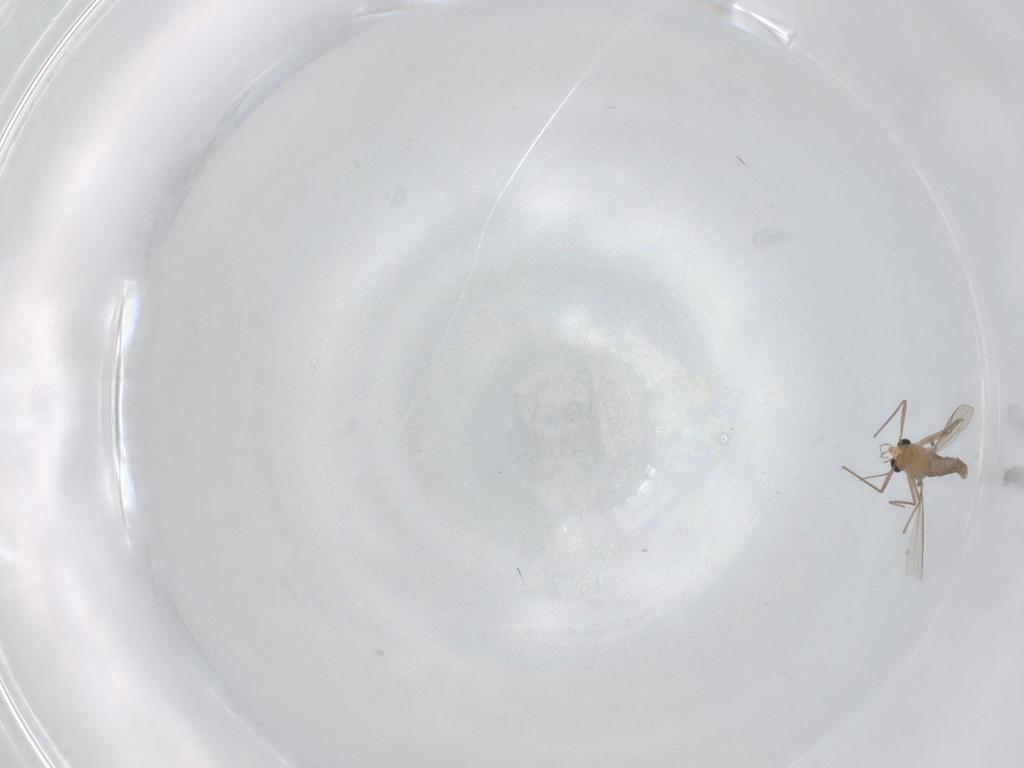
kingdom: Animalia
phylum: Arthropoda
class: Insecta
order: Diptera
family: Chironomidae
